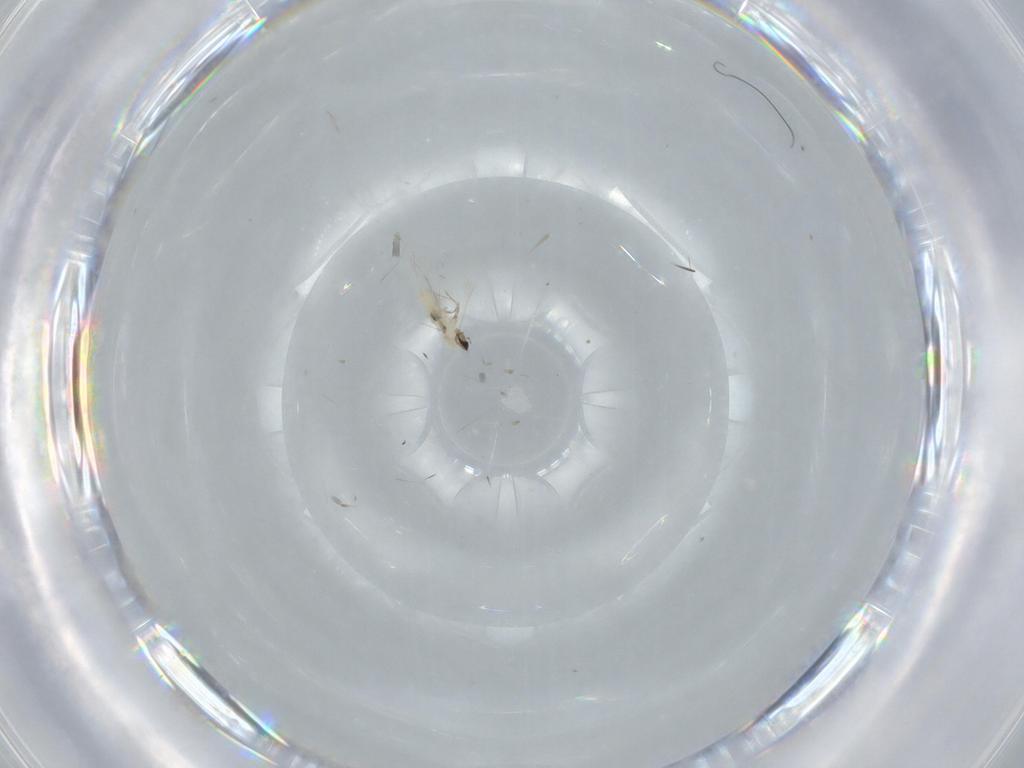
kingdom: Animalia
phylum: Arthropoda
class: Insecta
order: Diptera
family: Cecidomyiidae
